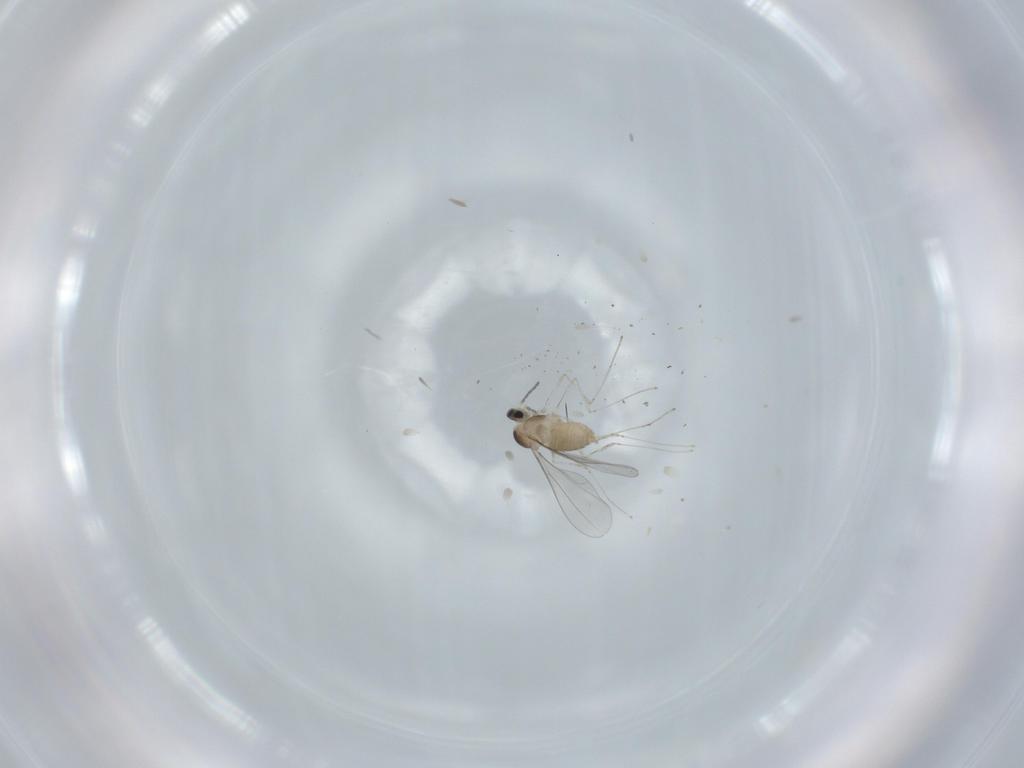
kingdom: Animalia
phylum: Arthropoda
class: Insecta
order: Diptera
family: Cecidomyiidae
